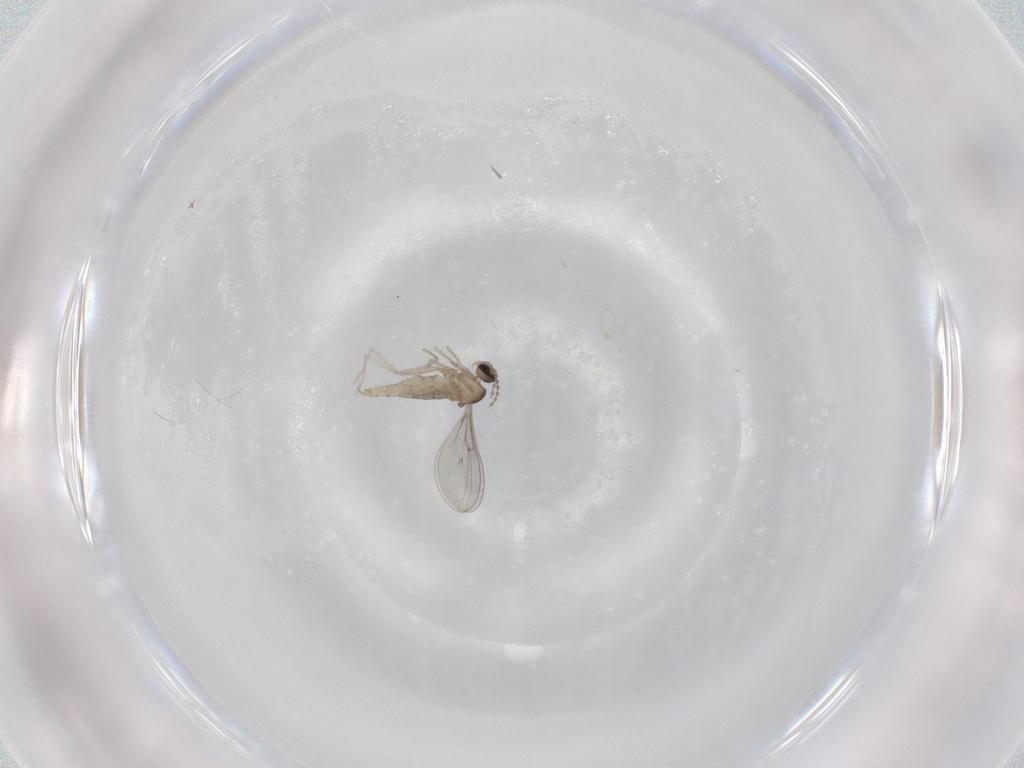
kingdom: Animalia
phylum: Arthropoda
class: Insecta
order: Diptera
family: Cecidomyiidae
